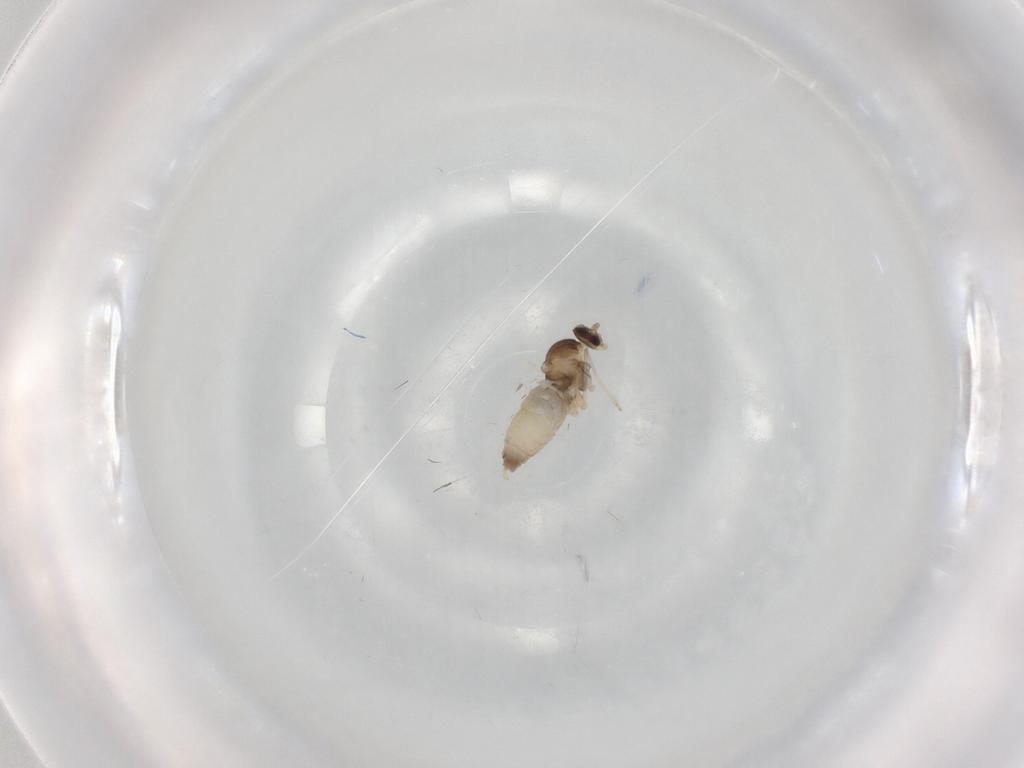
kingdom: Animalia
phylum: Arthropoda
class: Insecta
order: Diptera
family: Cecidomyiidae
